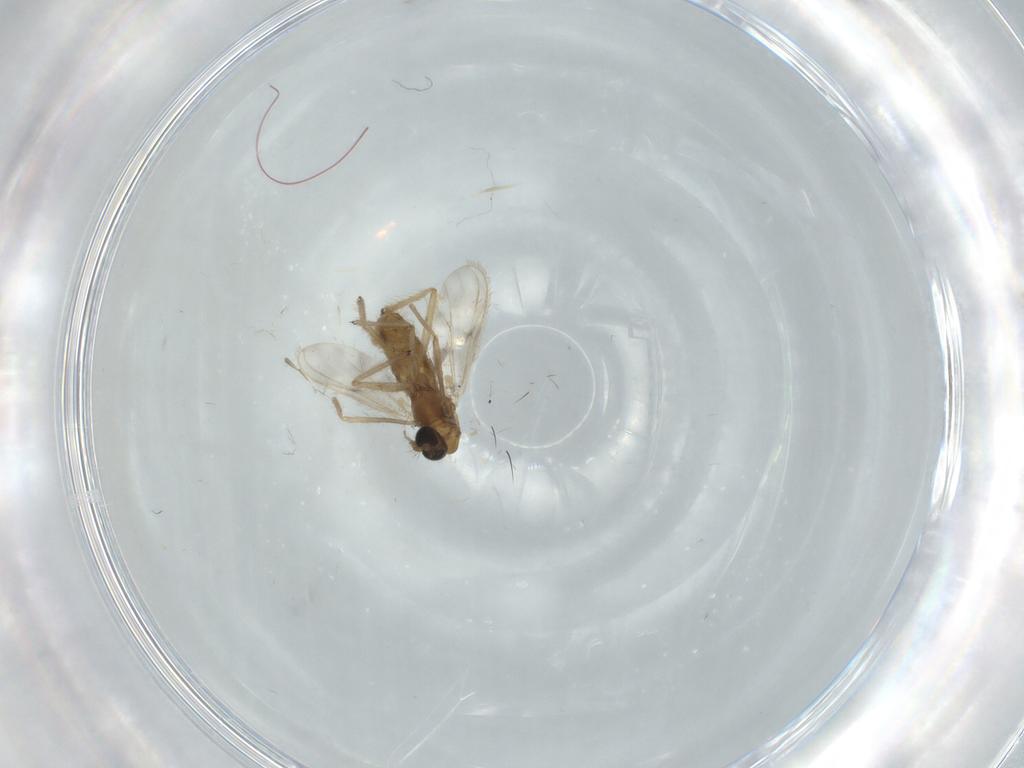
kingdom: Animalia
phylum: Arthropoda
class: Insecta
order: Diptera
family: Chironomidae
